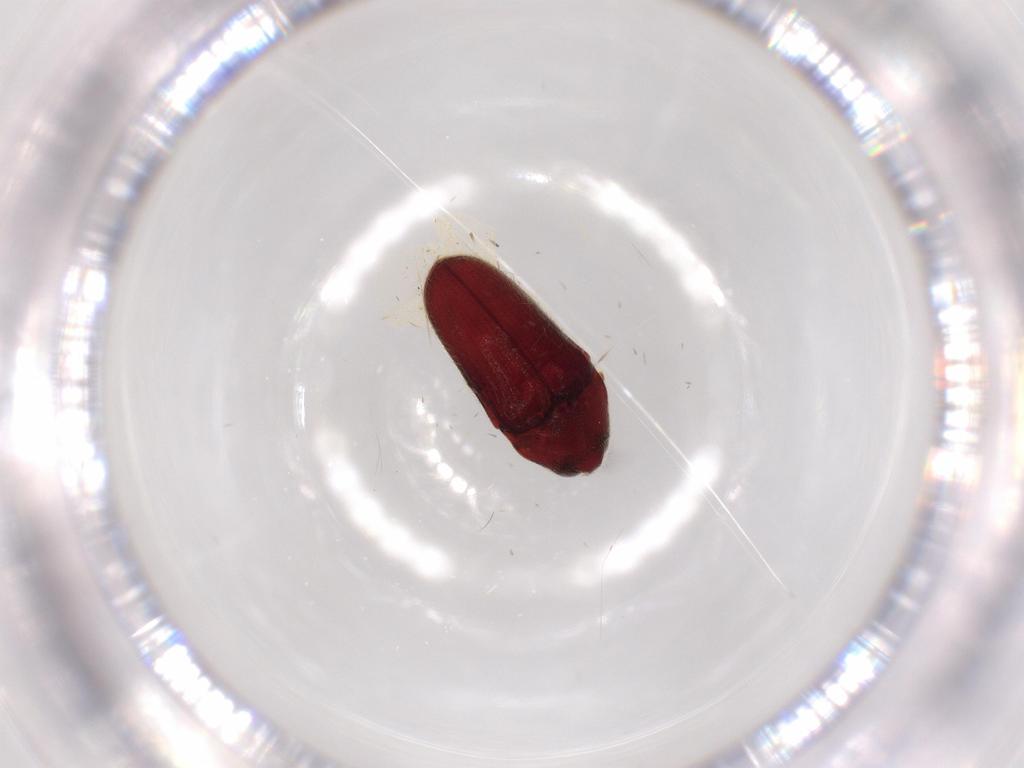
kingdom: Animalia
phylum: Arthropoda
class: Insecta
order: Coleoptera
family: Throscidae
